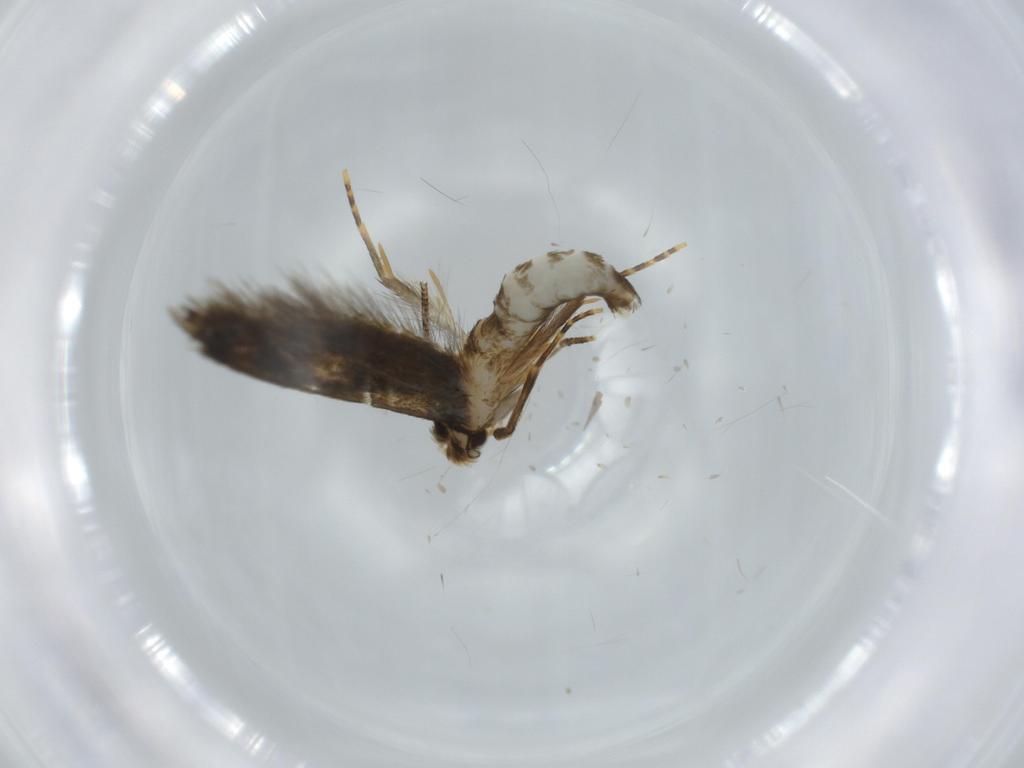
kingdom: Animalia
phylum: Arthropoda
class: Insecta
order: Lepidoptera
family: Tineidae
